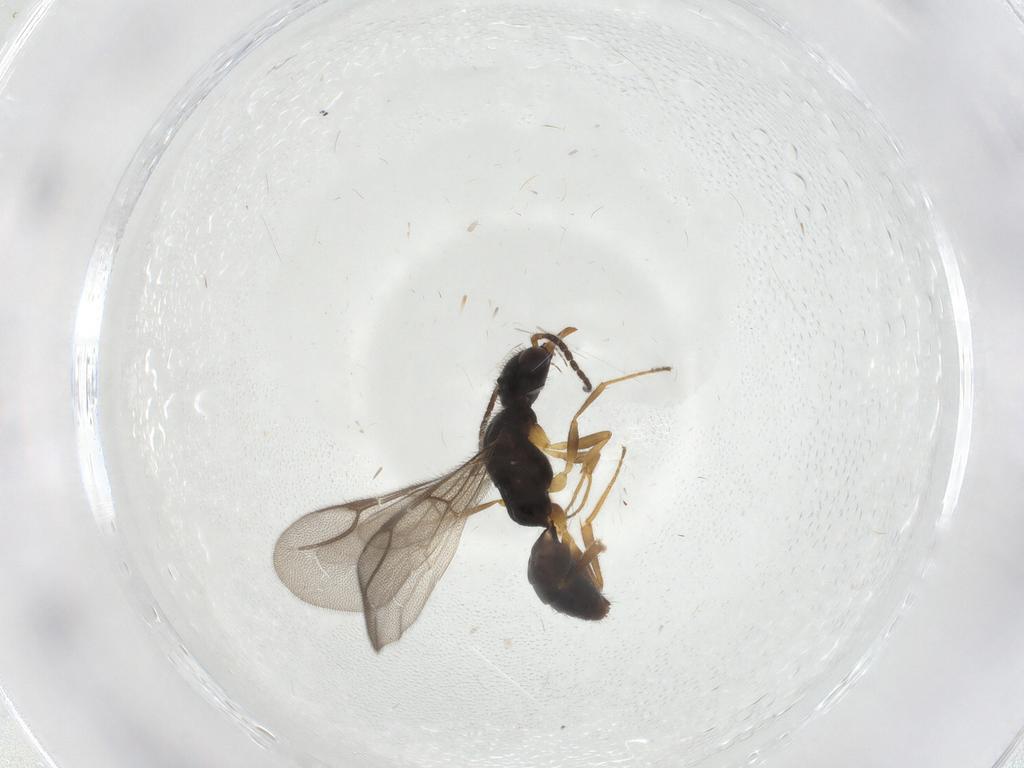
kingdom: Animalia
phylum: Arthropoda
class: Insecta
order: Hymenoptera
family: Bethylidae
